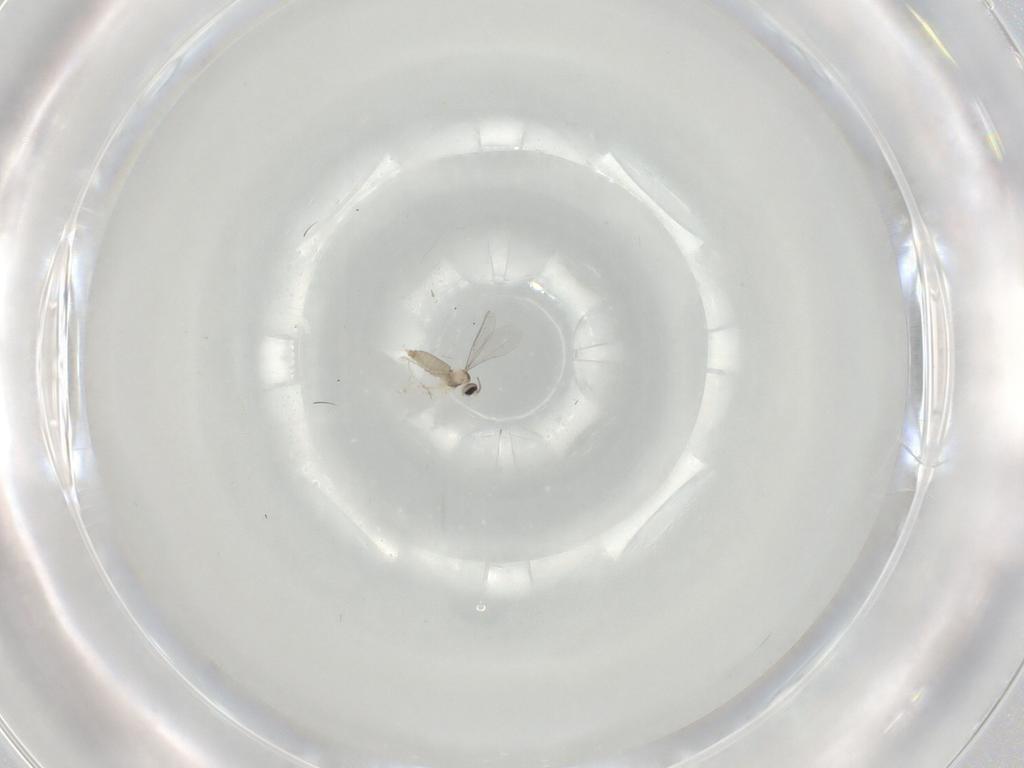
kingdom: Animalia
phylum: Arthropoda
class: Insecta
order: Diptera
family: Cecidomyiidae
